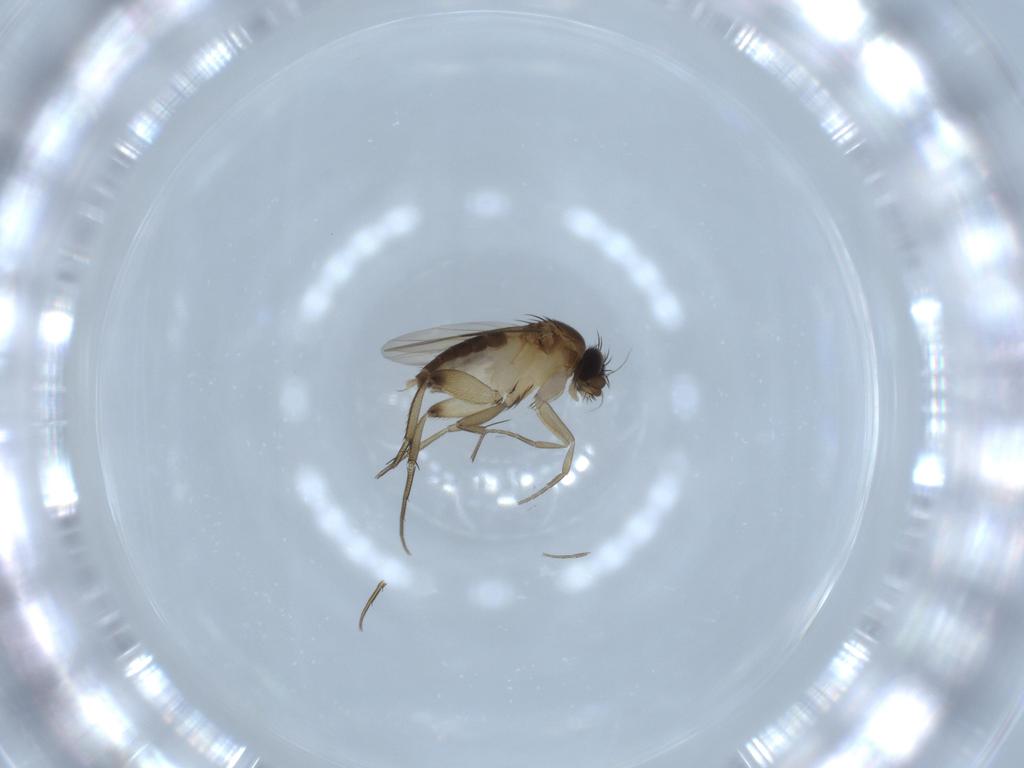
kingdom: Animalia
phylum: Arthropoda
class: Insecta
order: Diptera
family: Phoridae
